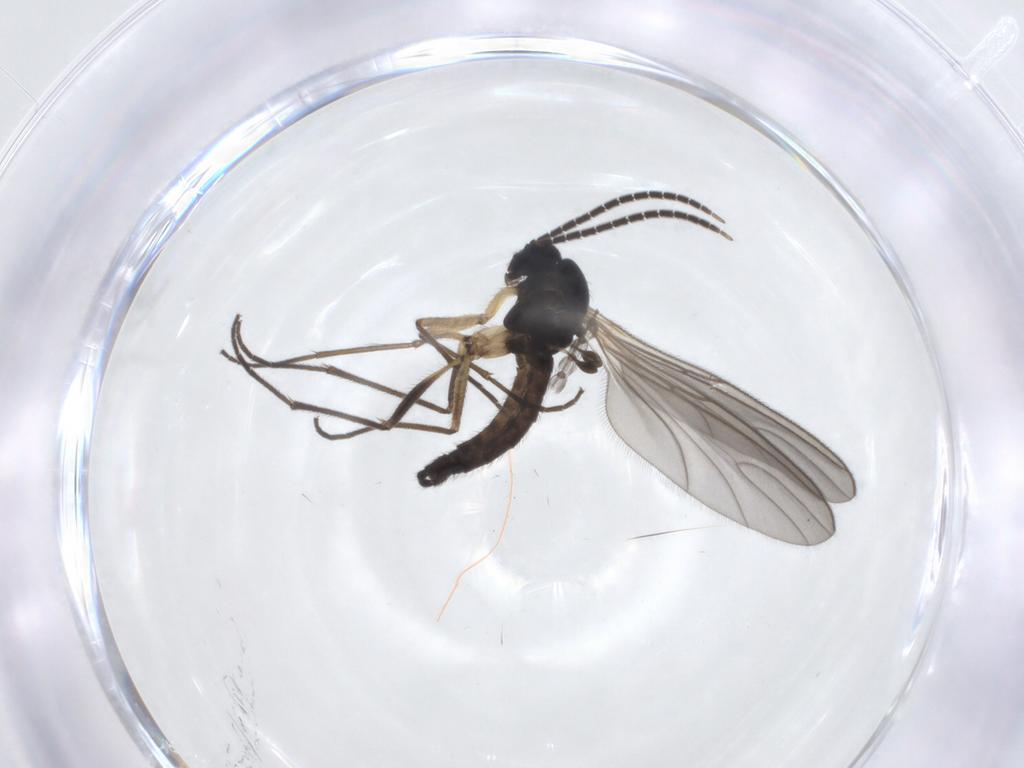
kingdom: Animalia
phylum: Arthropoda
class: Insecta
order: Diptera
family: Sciaridae
